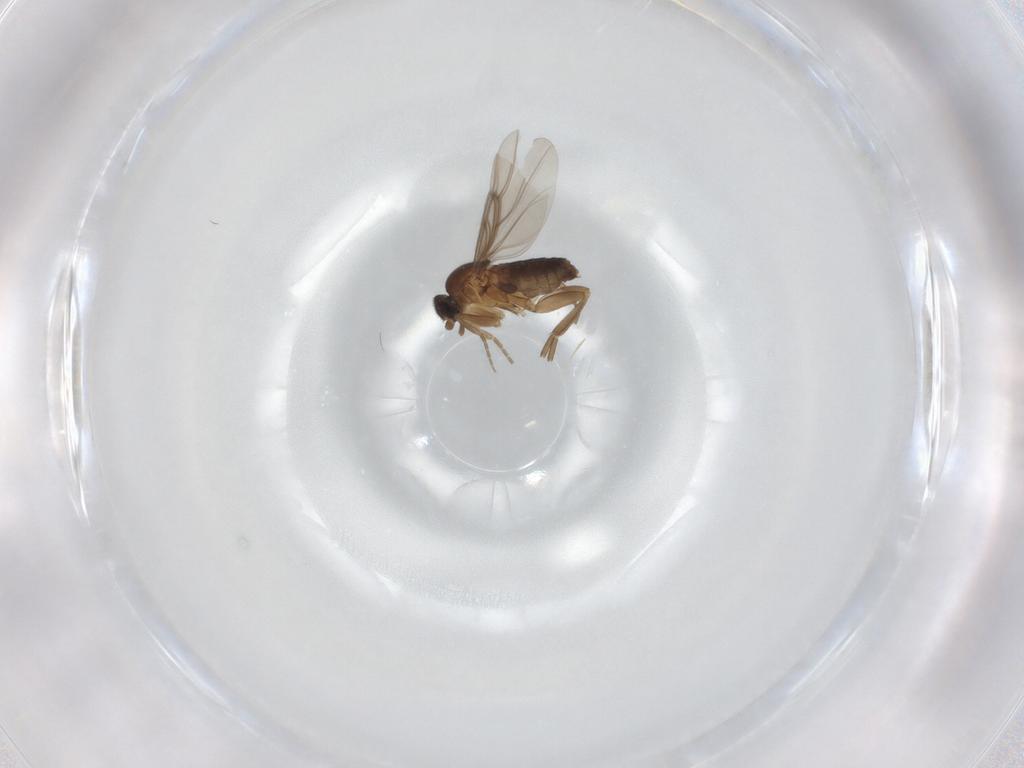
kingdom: Animalia
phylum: Arthropoda
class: Insecta
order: Diptera
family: Phoridae
